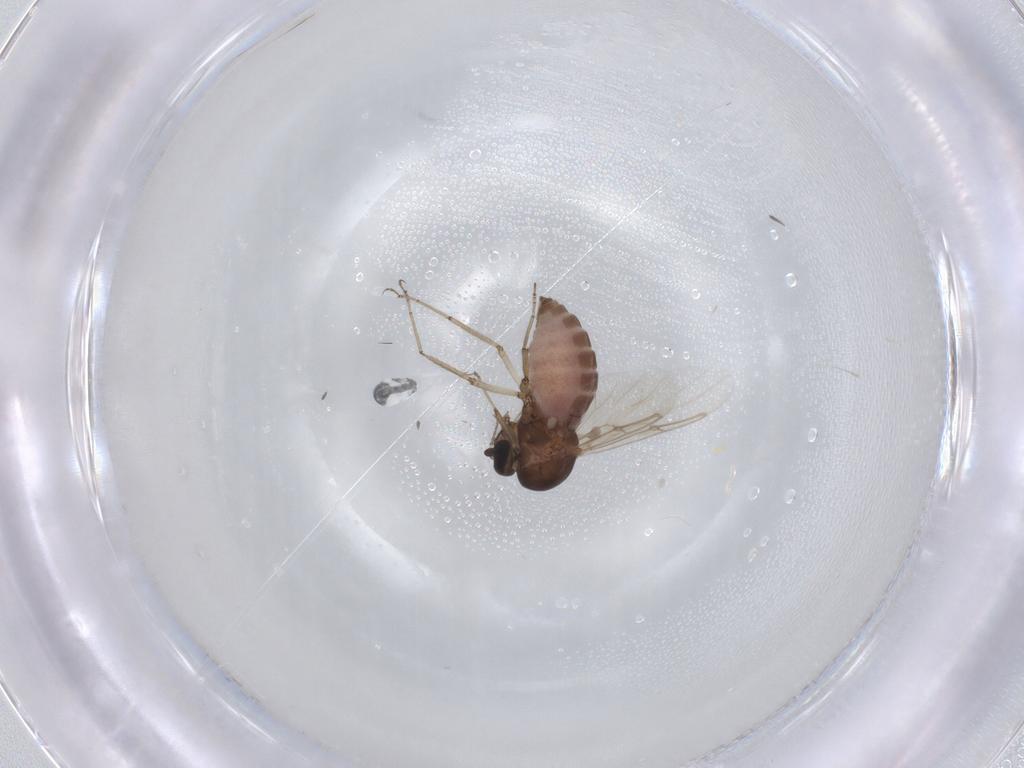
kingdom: Animalia
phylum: Arthropoda
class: Insecta
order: Diptera
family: Ceratopogonidae
